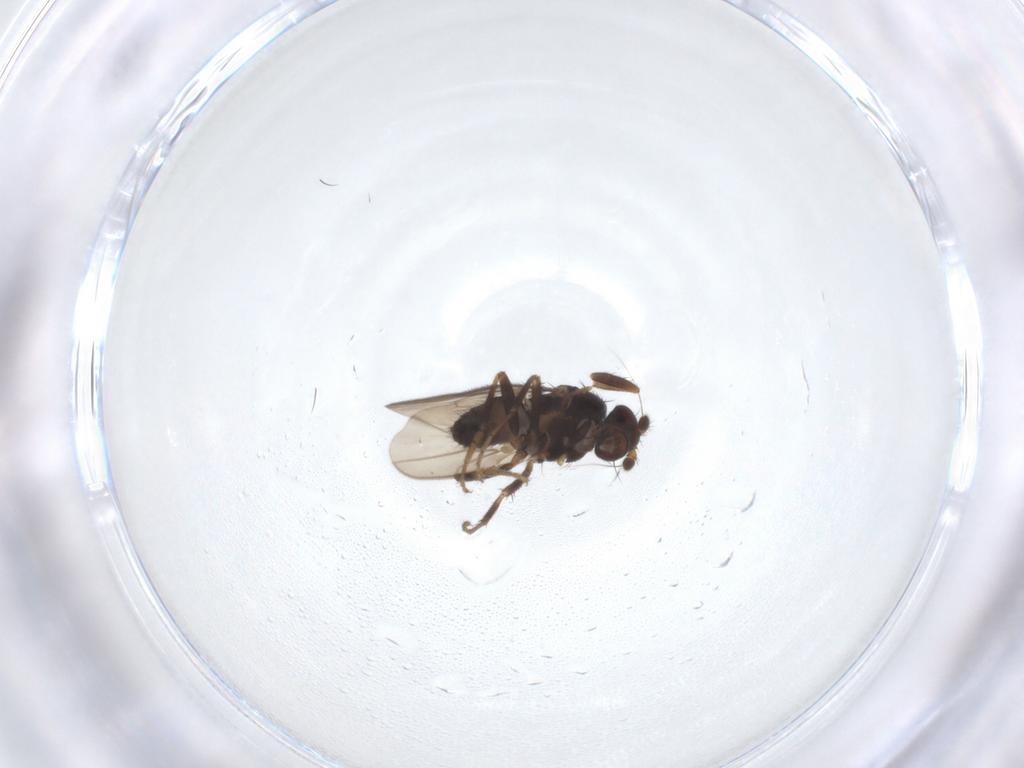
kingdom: Animalia
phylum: Arthropoda
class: Insecta
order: Diptera
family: Sphaeroceridae
